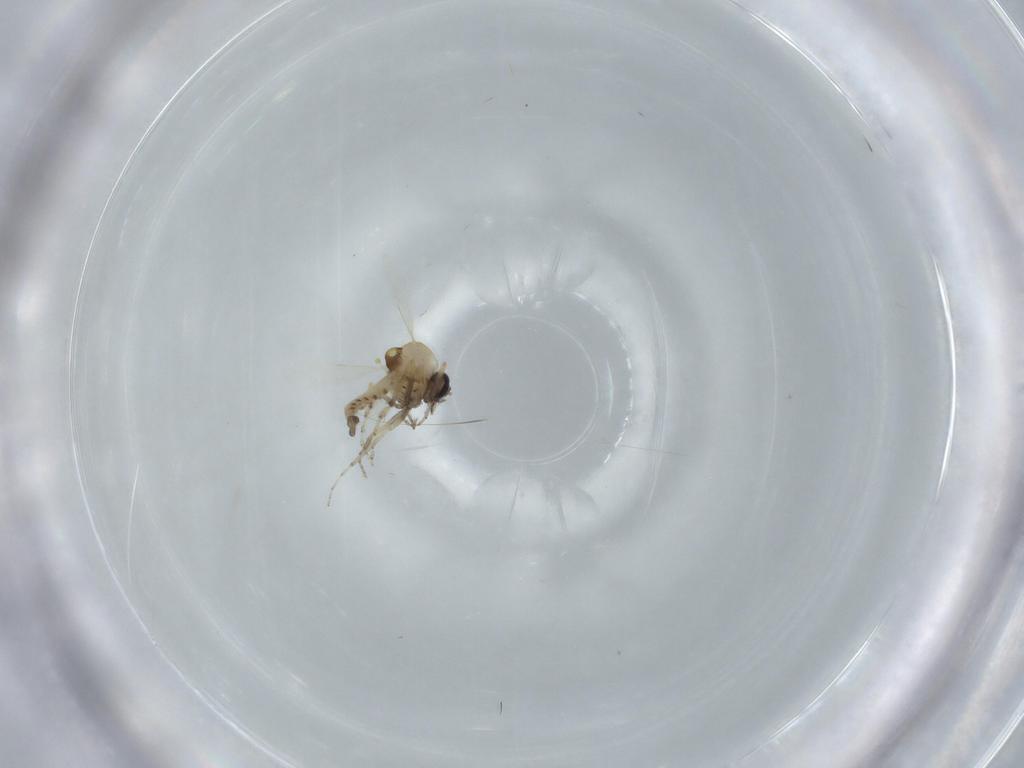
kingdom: Animalia
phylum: Arthropoda
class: Insecta
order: Diptera
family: Ceratopogonidae
